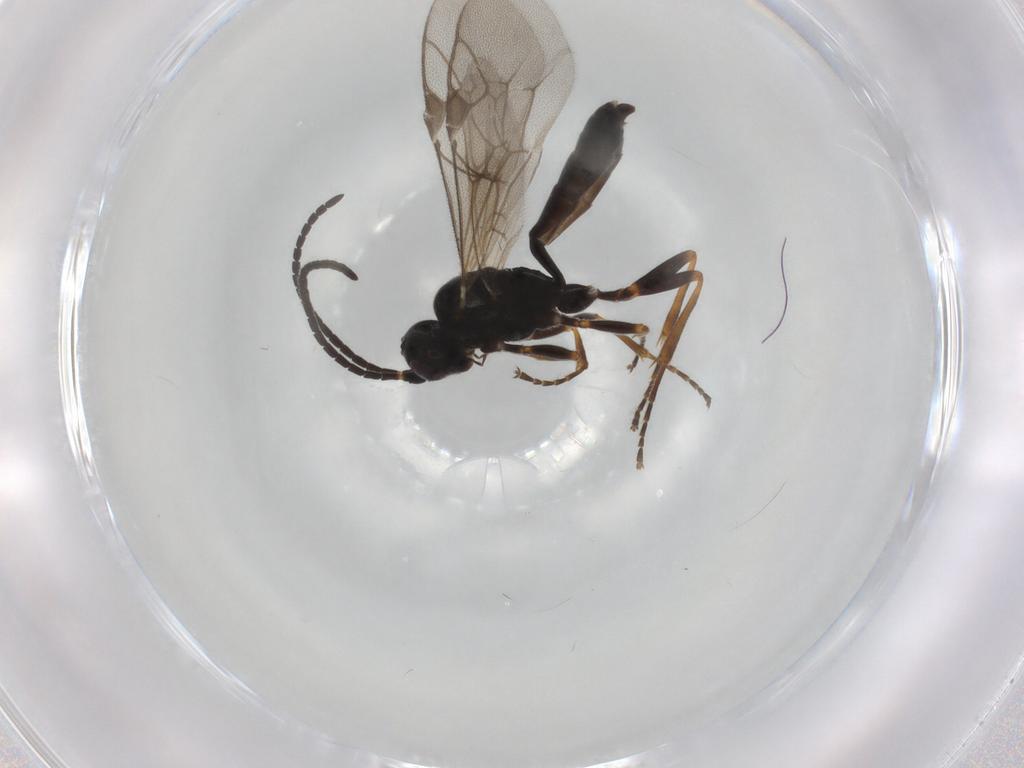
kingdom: Animalia
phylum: Arthropoda
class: Insecta
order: Hymenoptera
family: Ichneumonidae
